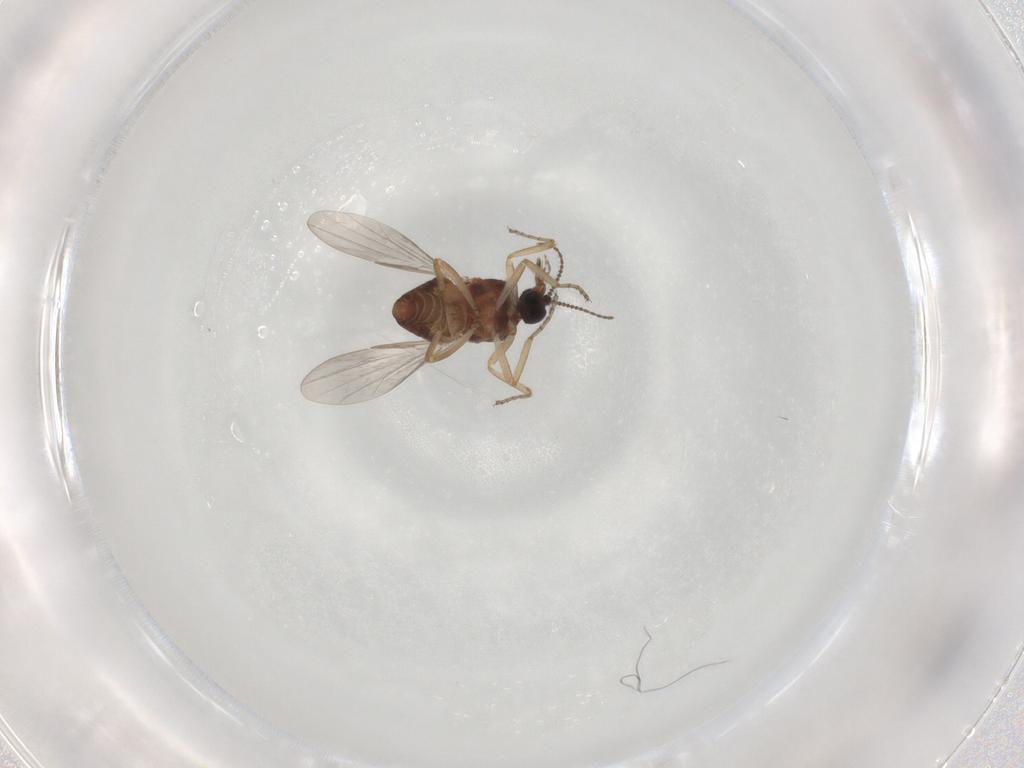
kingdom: Animalia
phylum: Arthropoda
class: Insecta
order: Diptera
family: Ceratopogonidae
